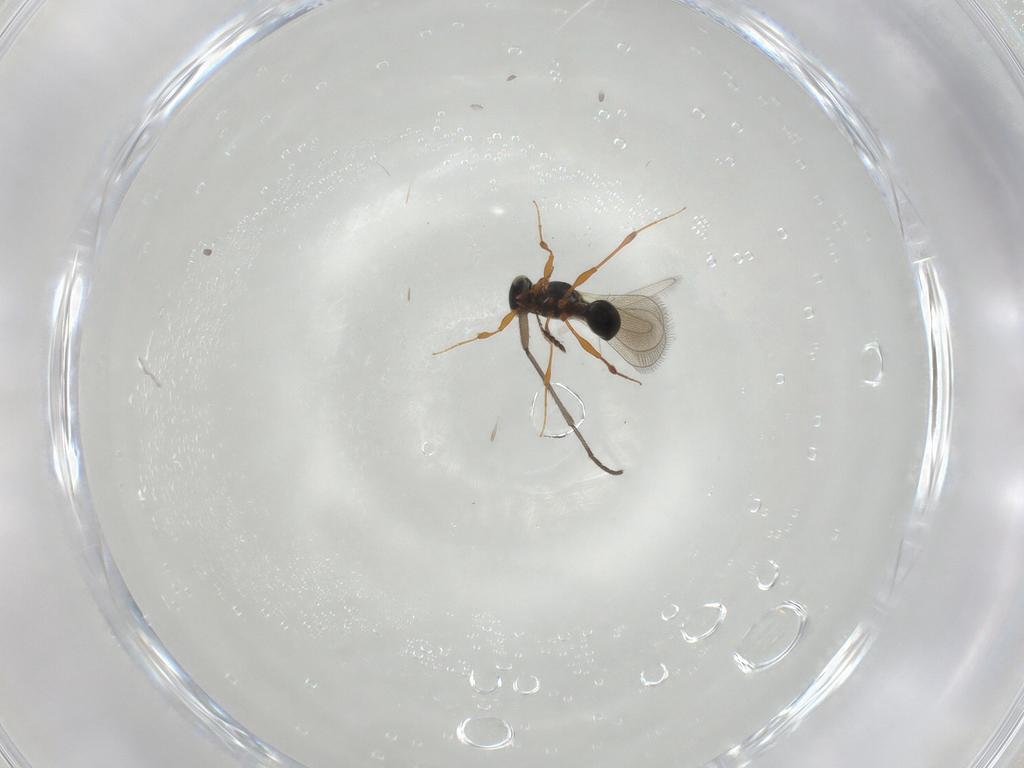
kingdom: Animalia
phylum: Arthropoda
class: Insecta
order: Hymenoptera
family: Platygastridae
